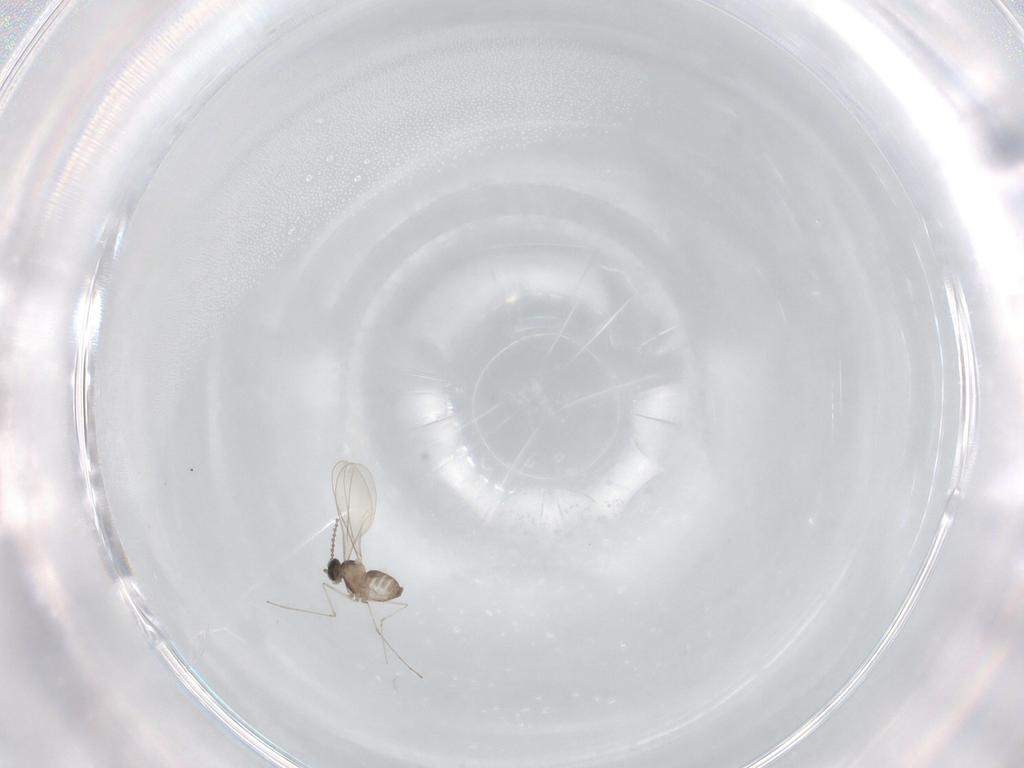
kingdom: Animalia
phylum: Arthropoda
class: Insecta
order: Diptera
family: Cecidomyiidae
